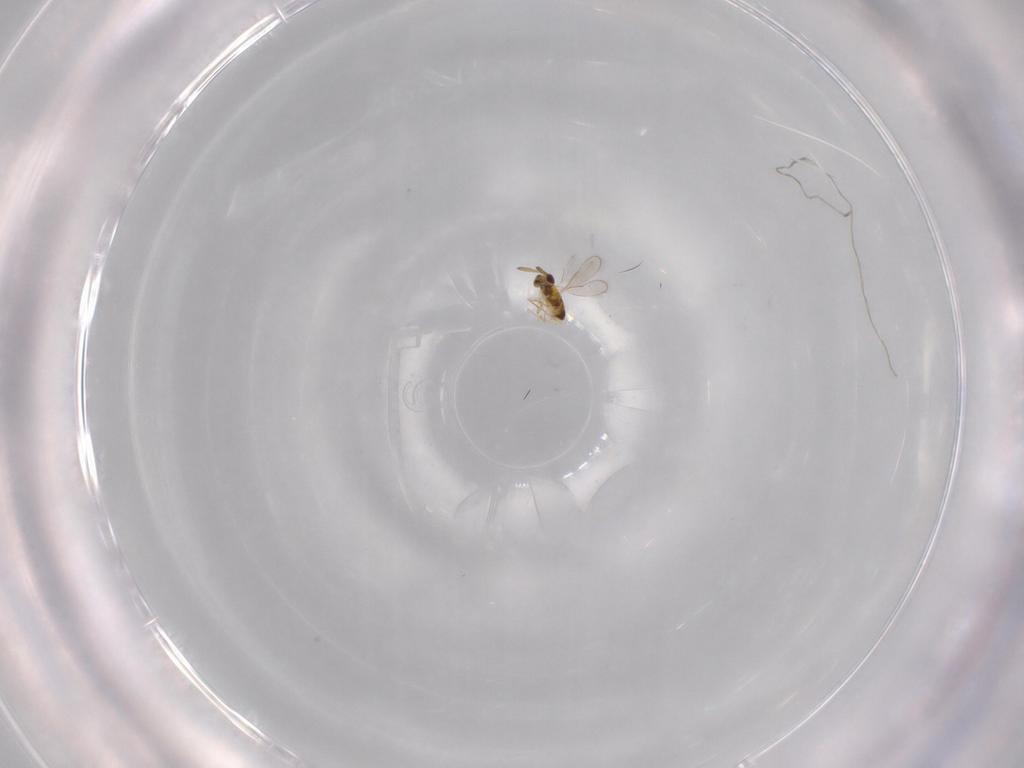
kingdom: Animalia
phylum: Arthropoda
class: Insecta
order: Hymenoptera
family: Aphelinidae
